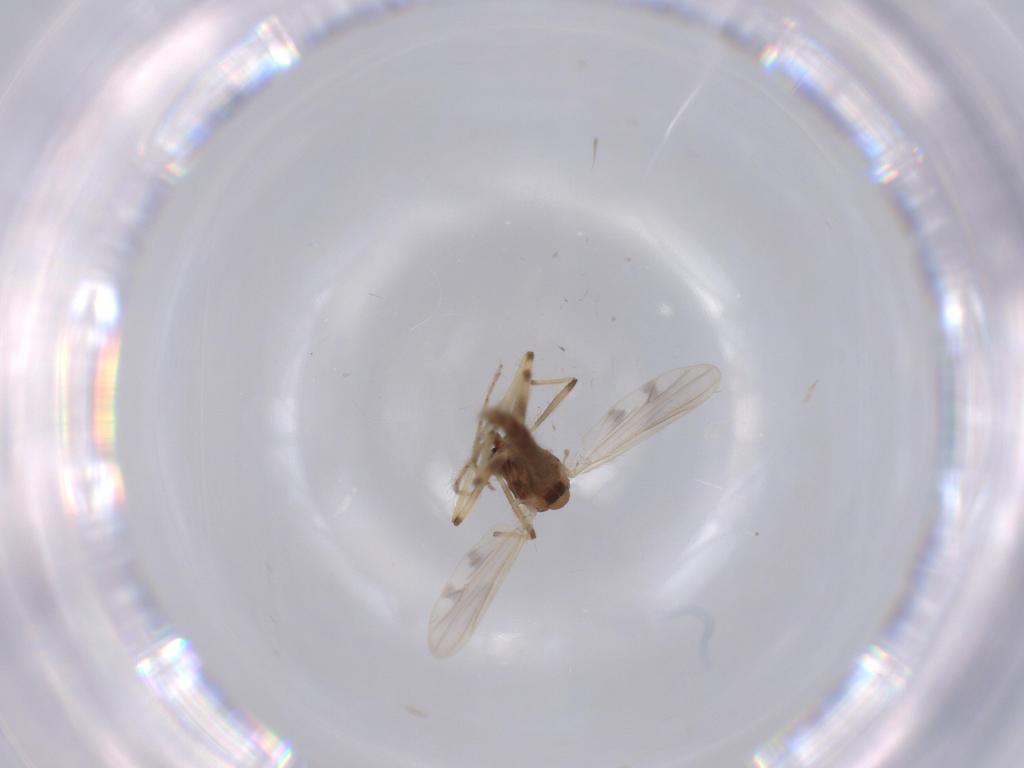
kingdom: Animalia
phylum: Arthropoda
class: Insecta
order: Diptera
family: Chironomidae
